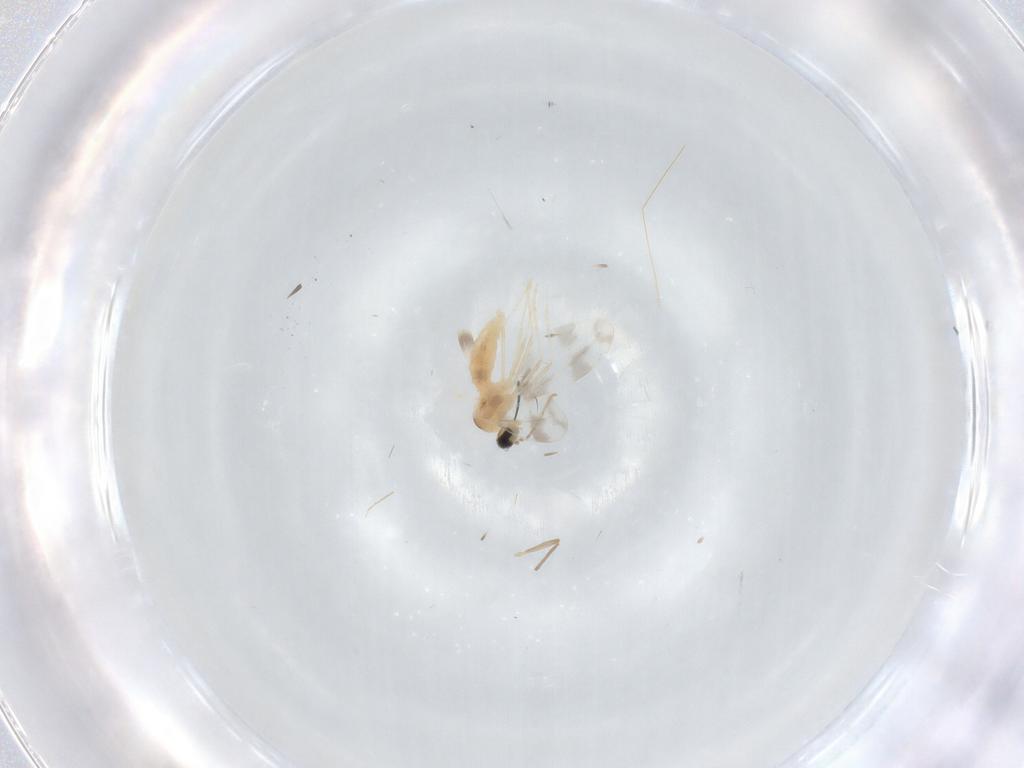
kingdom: Animalia
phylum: Arthropoda
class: Insecta
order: Diptera
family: Cecidomyiidae
